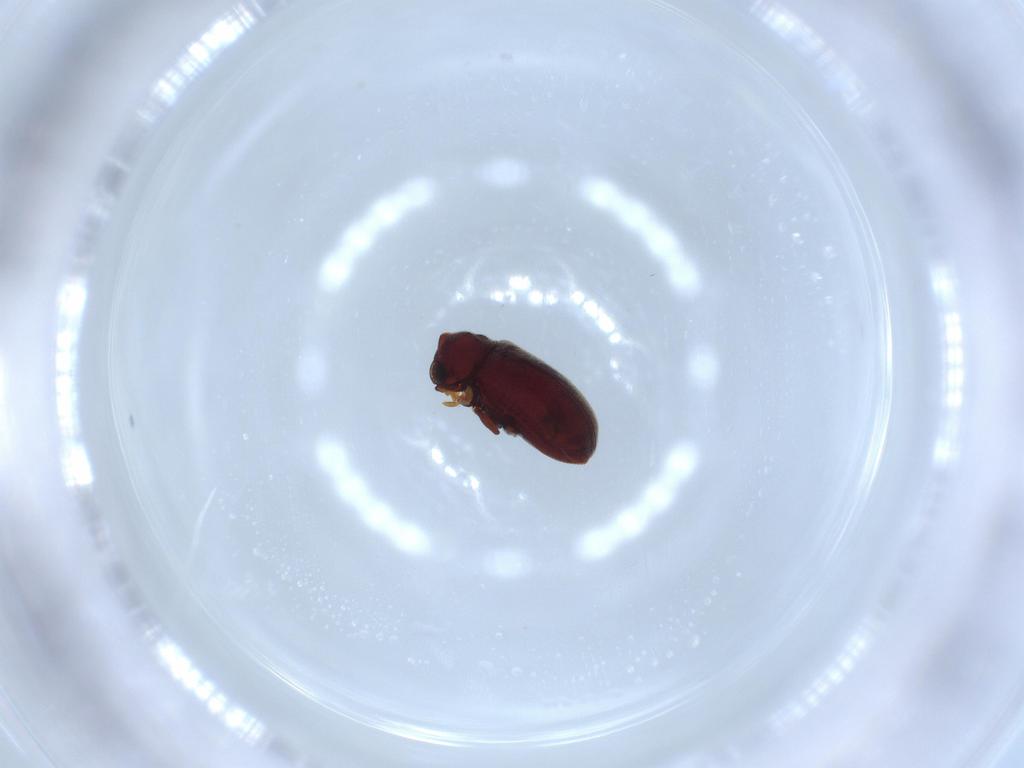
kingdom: Animalia
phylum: Arthropoda
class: Insecta
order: Coleoptera
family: Anobiidae
